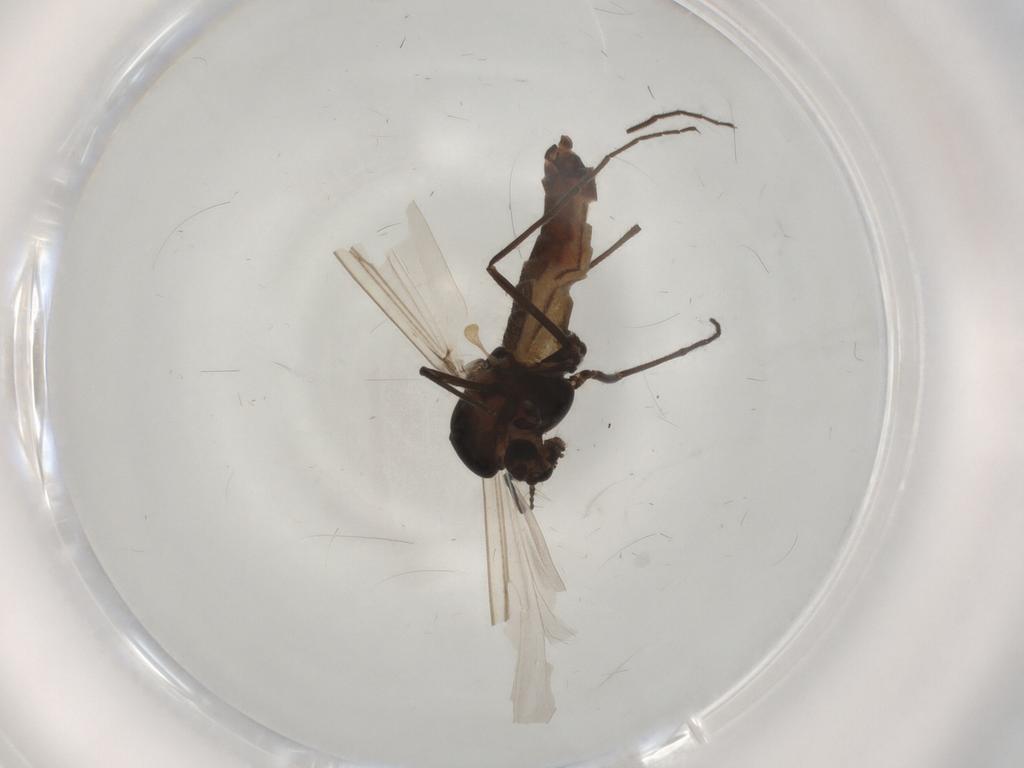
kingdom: Animalia
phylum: Arthropoda
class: Insecta
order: Diptera
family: Chironomidae
